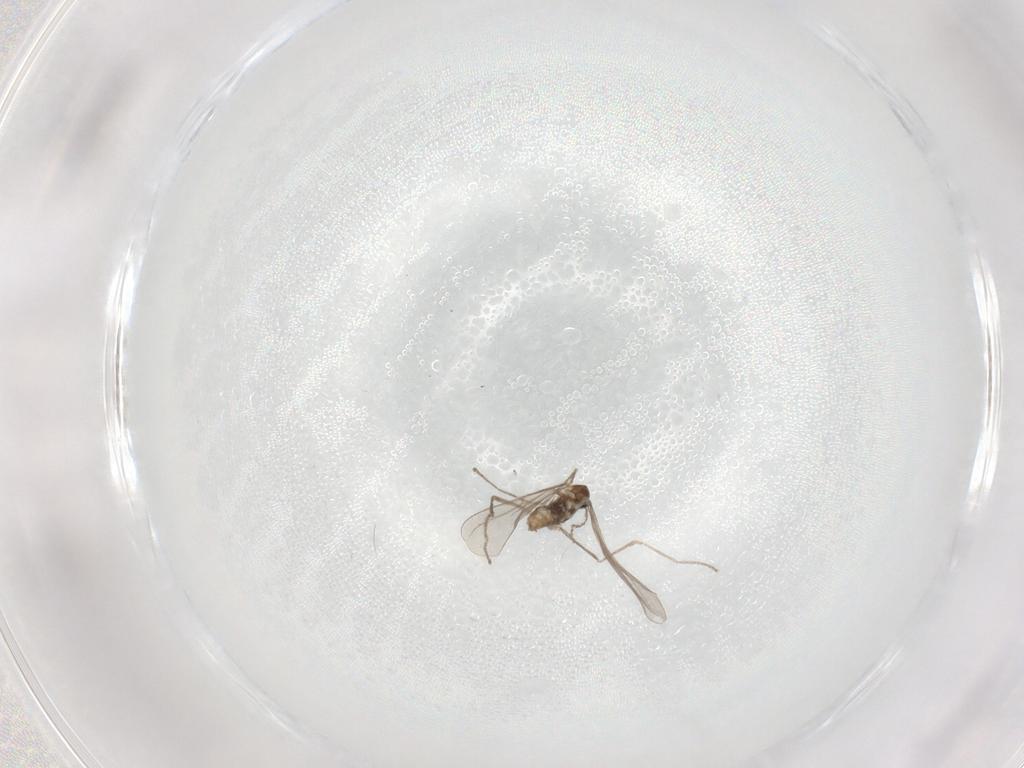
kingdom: Animalia
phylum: Arthropoda
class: Insecta
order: Diptera
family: Cecidomyiidae
